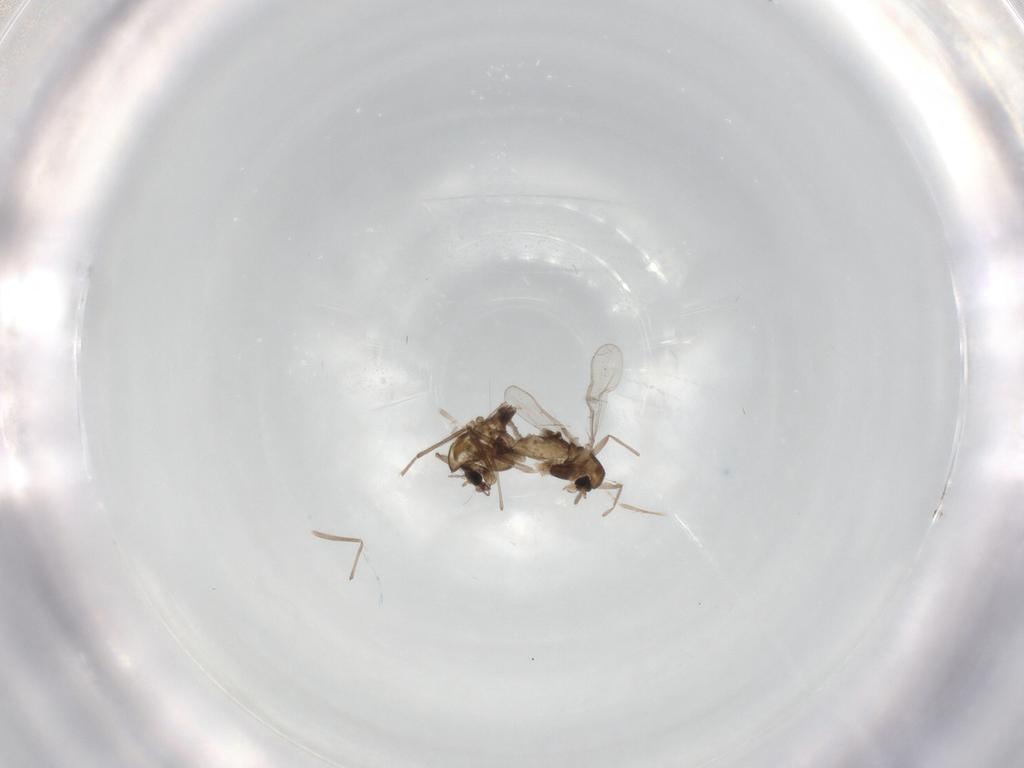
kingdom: Animalia
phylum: Arthropoda
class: Insecta
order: Diptera
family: Chironomidae
